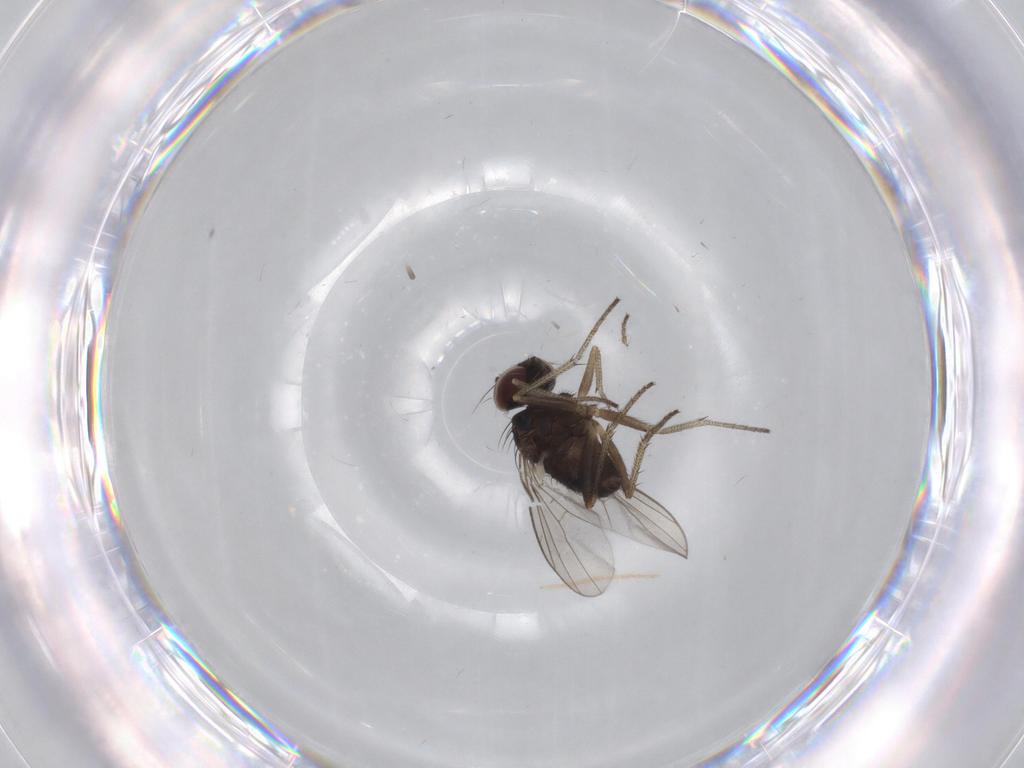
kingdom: Animalia
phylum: Arthropoda
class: Insecta
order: Diptera
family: Dolichopodidae
